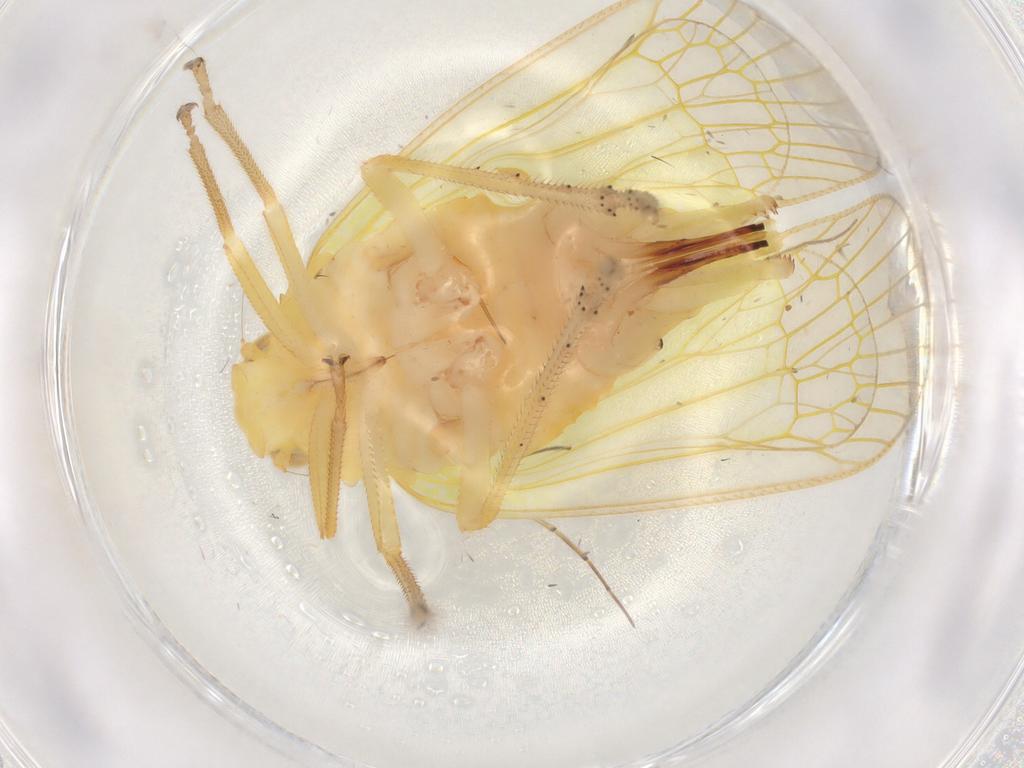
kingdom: Animalia
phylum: Arthropoda
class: Insecta
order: Hemiptera
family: Tropiduchidae
